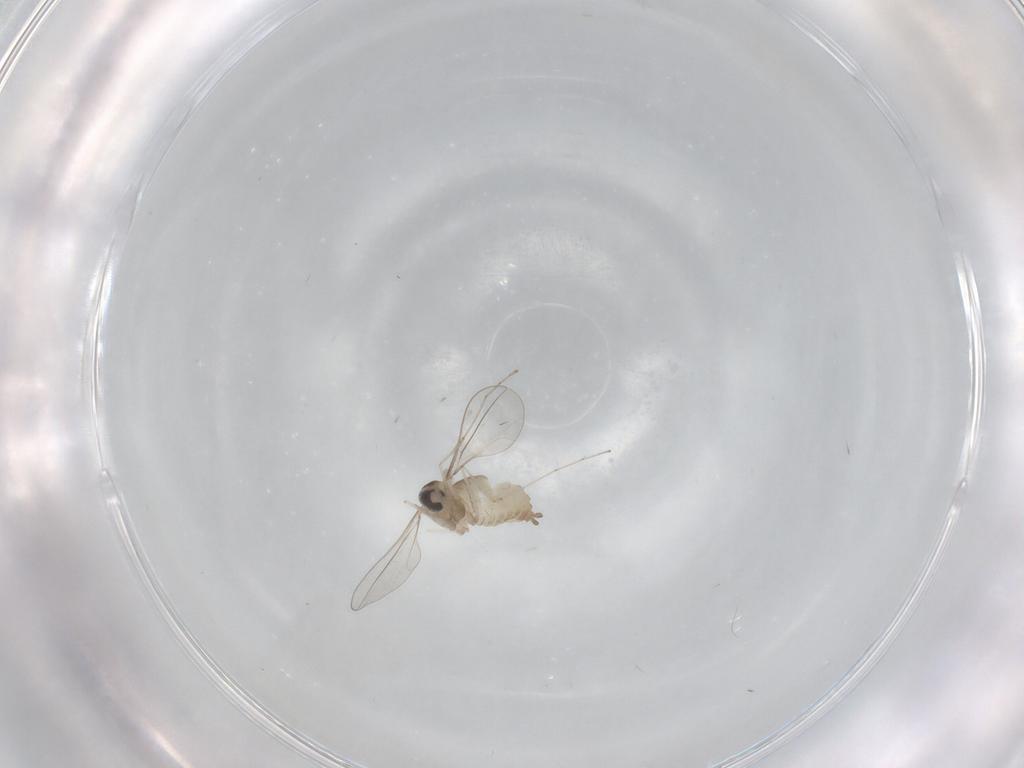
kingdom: Animalia
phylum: Arthropoda
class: Insecta
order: Diptera
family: Cecidomyiidae
